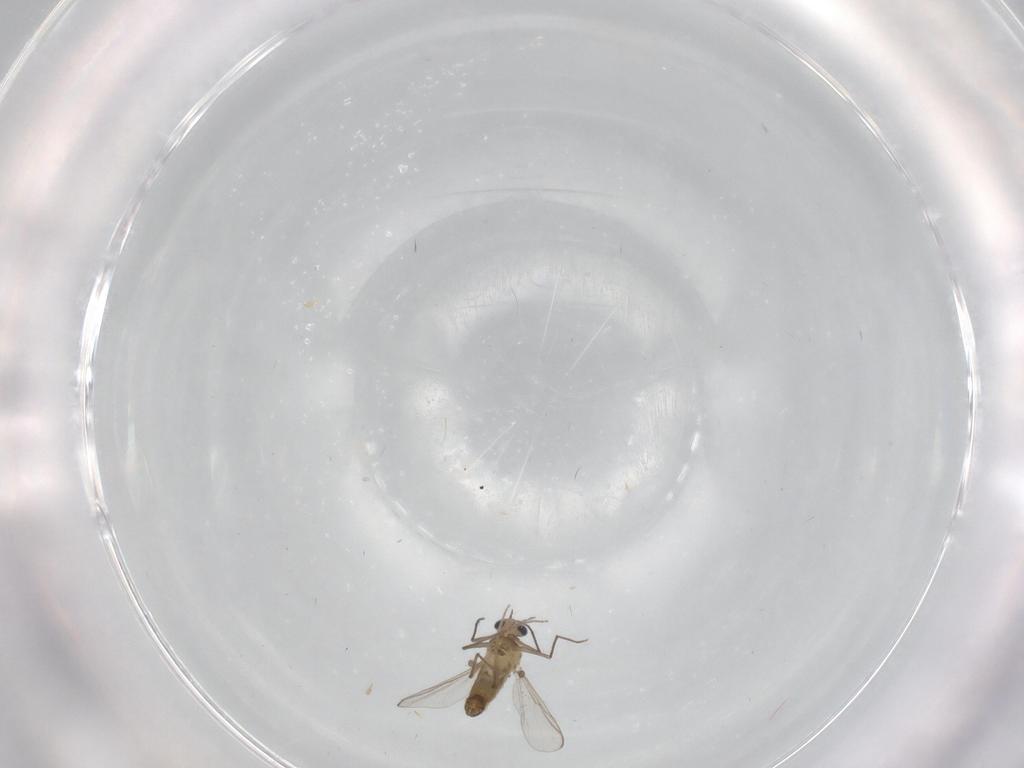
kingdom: Animalia
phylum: Arthropoda
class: Insecta
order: Diptera
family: Chironomidae
